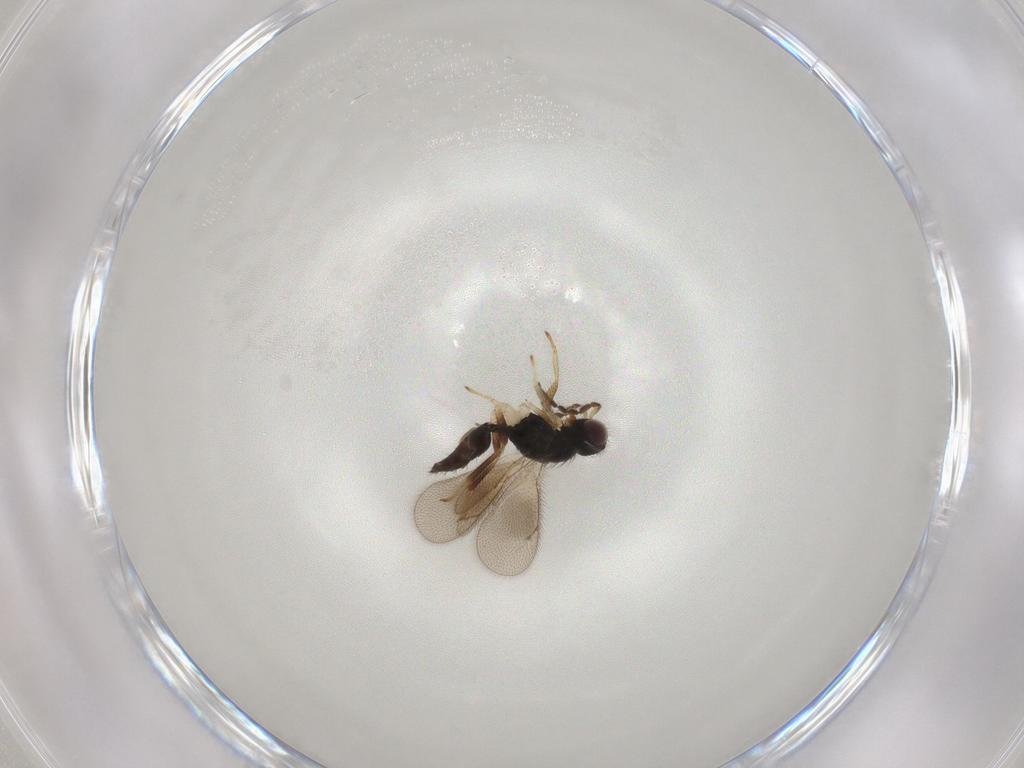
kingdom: Animalia
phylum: Arthropoda
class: Insecta
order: Hymenoptera
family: Eulophidae
